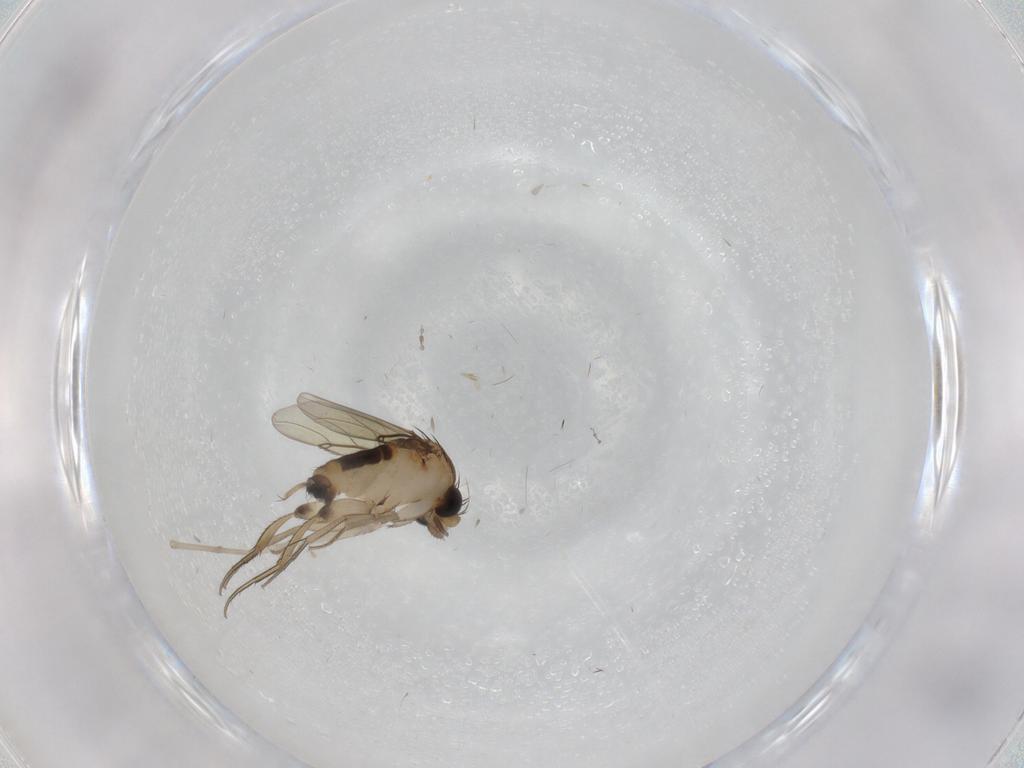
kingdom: Animalia
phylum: Arthropoda
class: Insecta
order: Diptera
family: Phoridae
